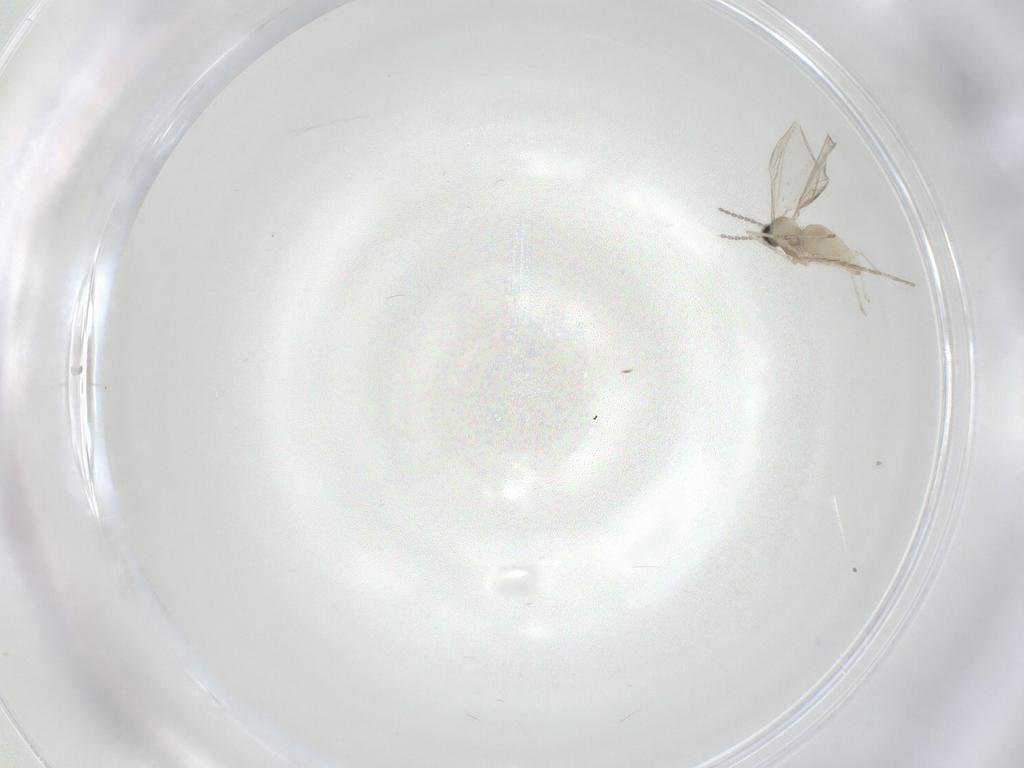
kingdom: Animalia
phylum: Arthropoda
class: Insecta
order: Diptera
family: Cecidomyiidae
